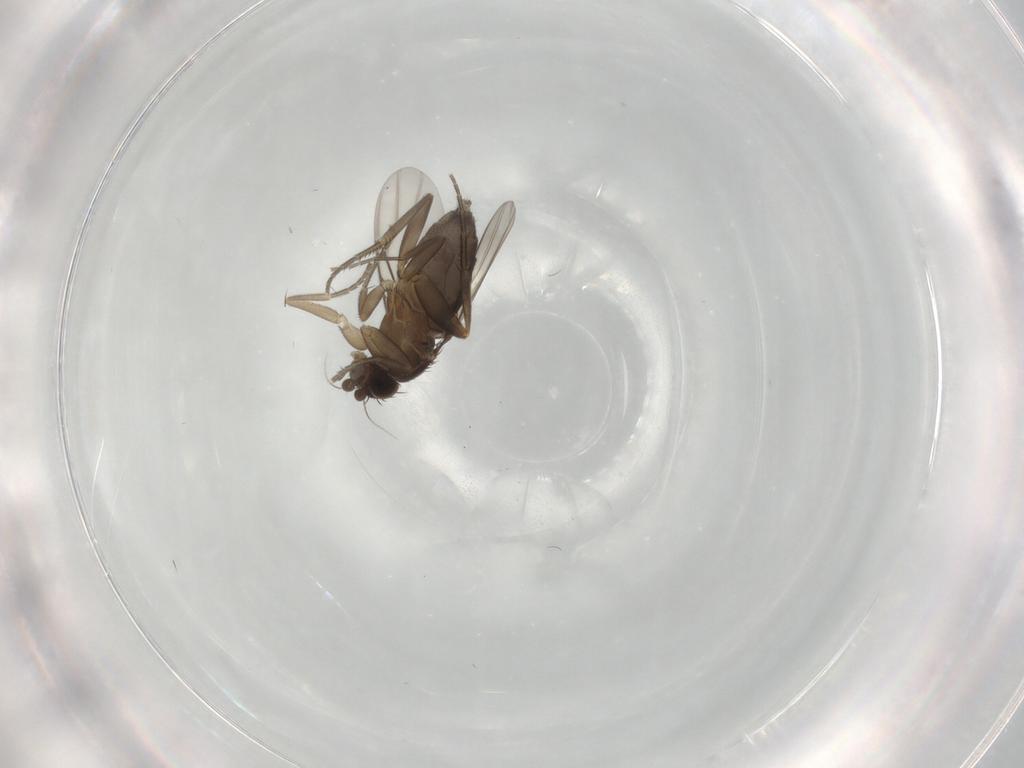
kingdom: Animalia
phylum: Arthropoda
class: Insecta
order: Diptera
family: Phoridae
